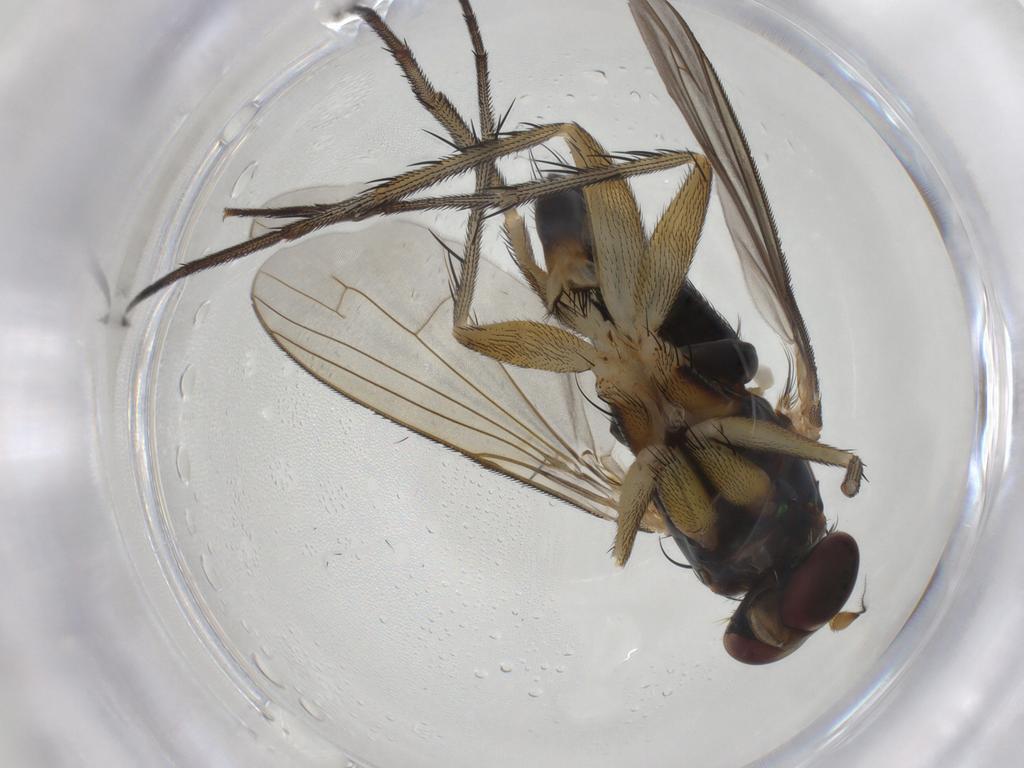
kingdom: Animalia
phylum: Arthropoda
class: Insecta
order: Diptera
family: Dolichopodidae
